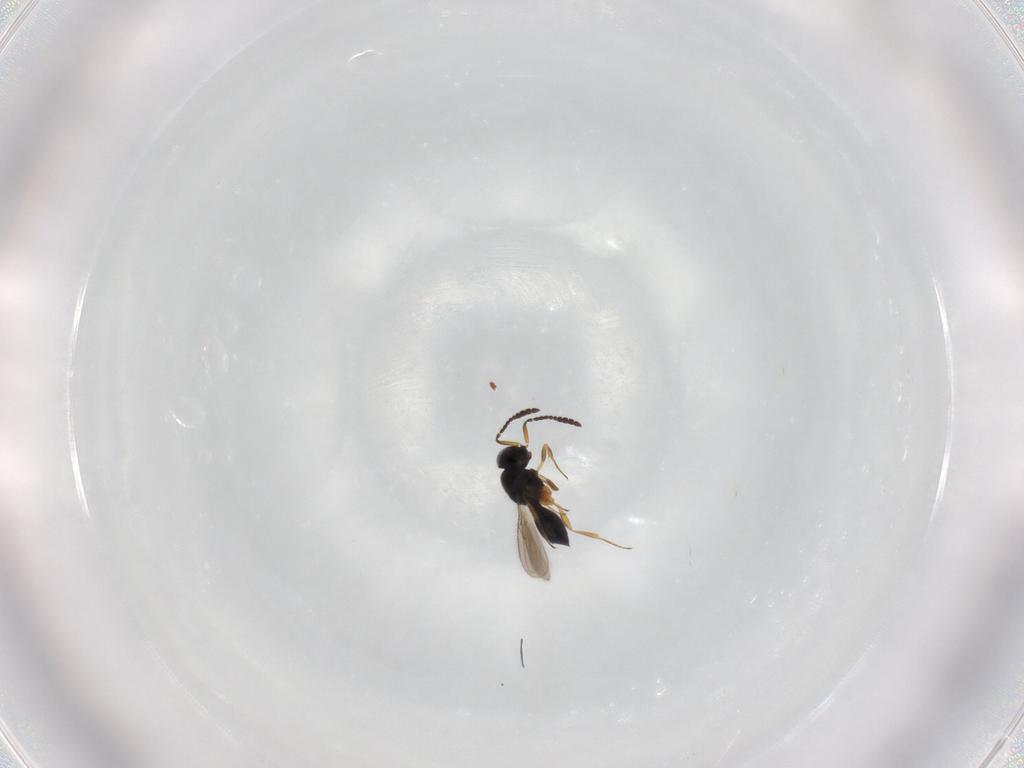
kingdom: Animalia
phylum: Arthropoda
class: Insecta
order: Hymenoptera
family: Scelionidae
